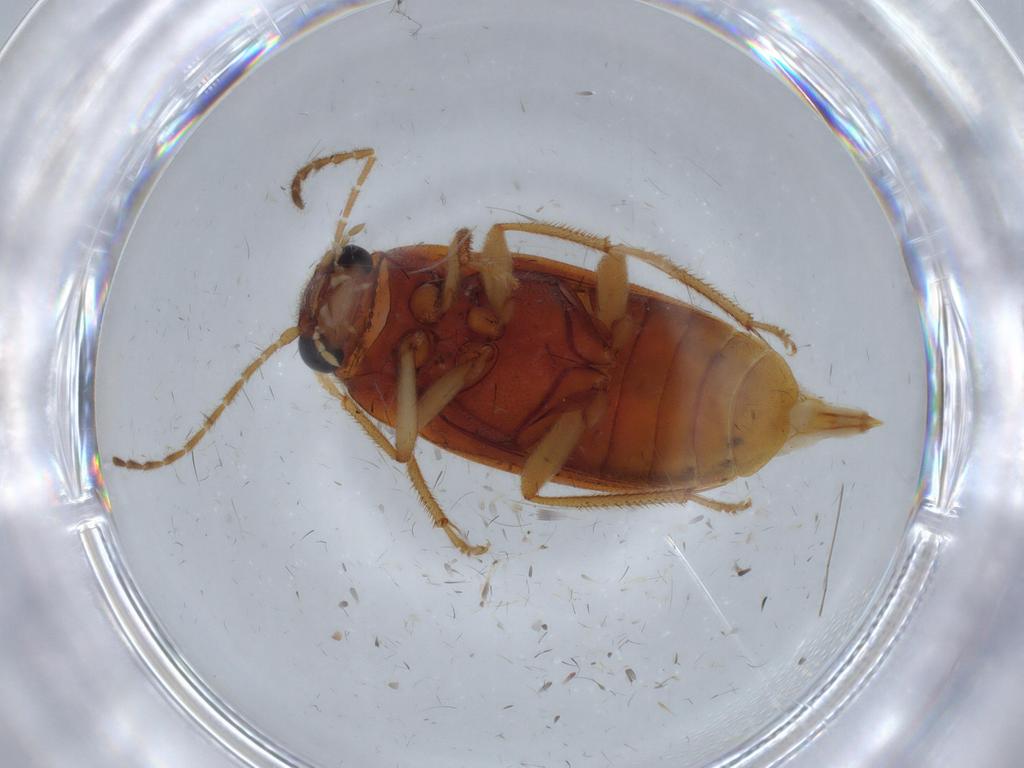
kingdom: Animalia
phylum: Arthropoda
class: Insecta
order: Coleoptera
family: Ptilodactylidae
